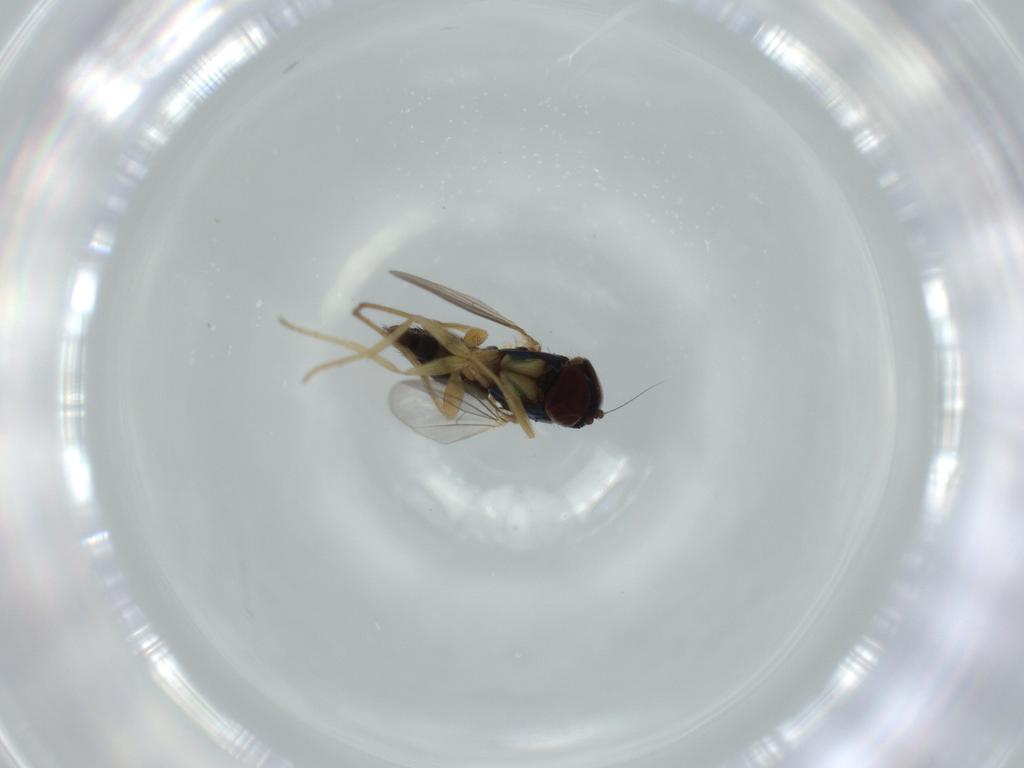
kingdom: Animalia
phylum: Arthropoda
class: Insecta
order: Diptera
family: Dolichopodidae
